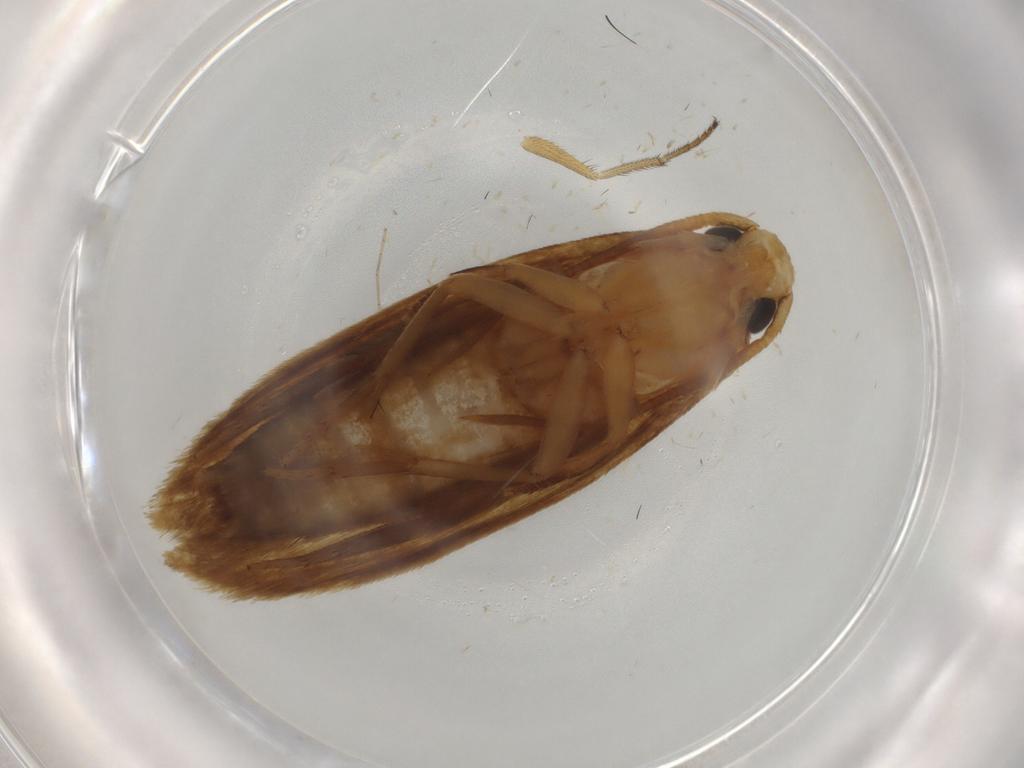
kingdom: Animalia
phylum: Arthropoda
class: Insecta
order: Lepidoptera
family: Tineidae
